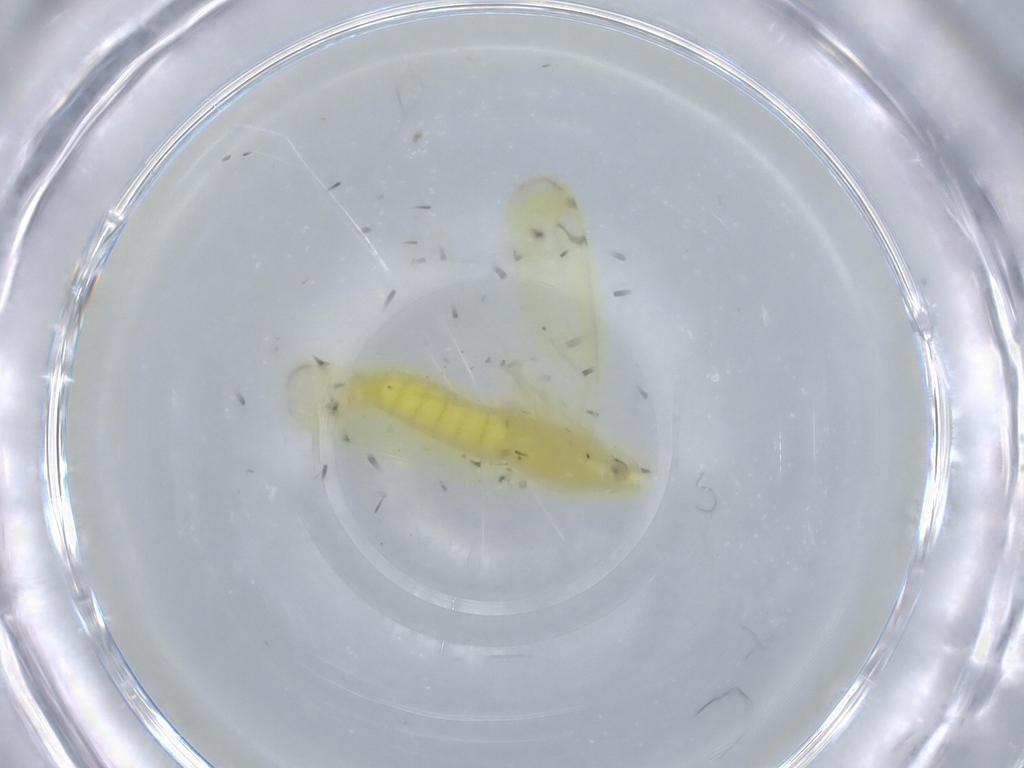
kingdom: Animalia
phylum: Arthropoda
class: Insecta
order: Hemiptera
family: Cicadellidae
